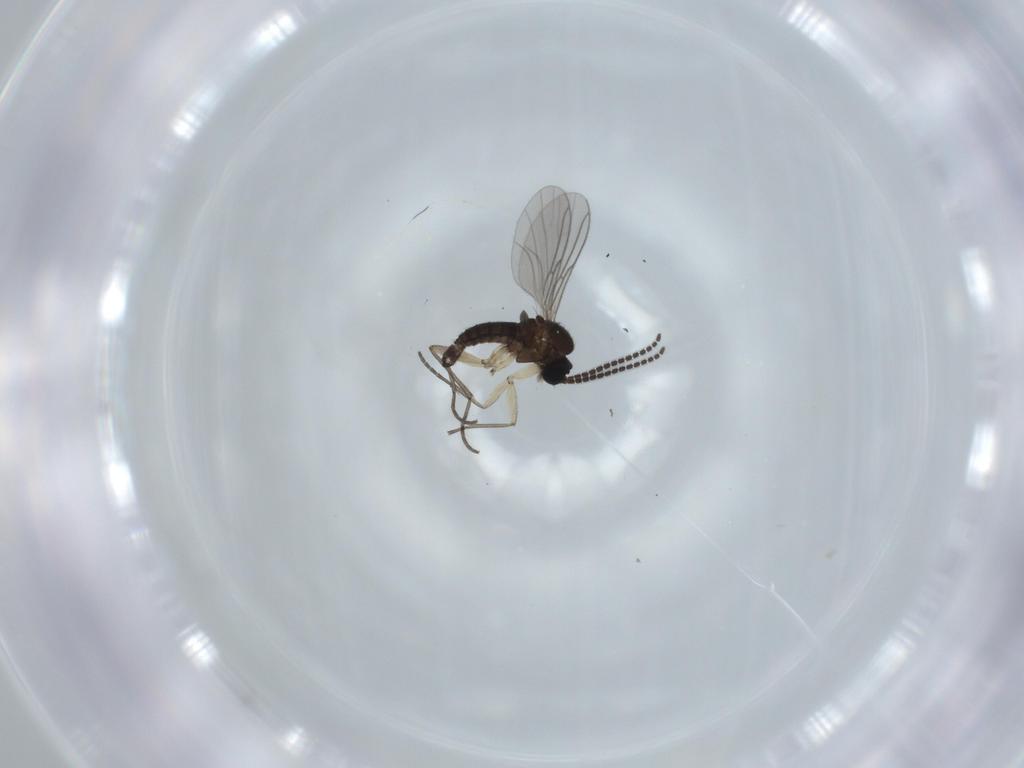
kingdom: Animalia
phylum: Arthropoda
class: Insecta
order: Diptera
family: Sciaridae
